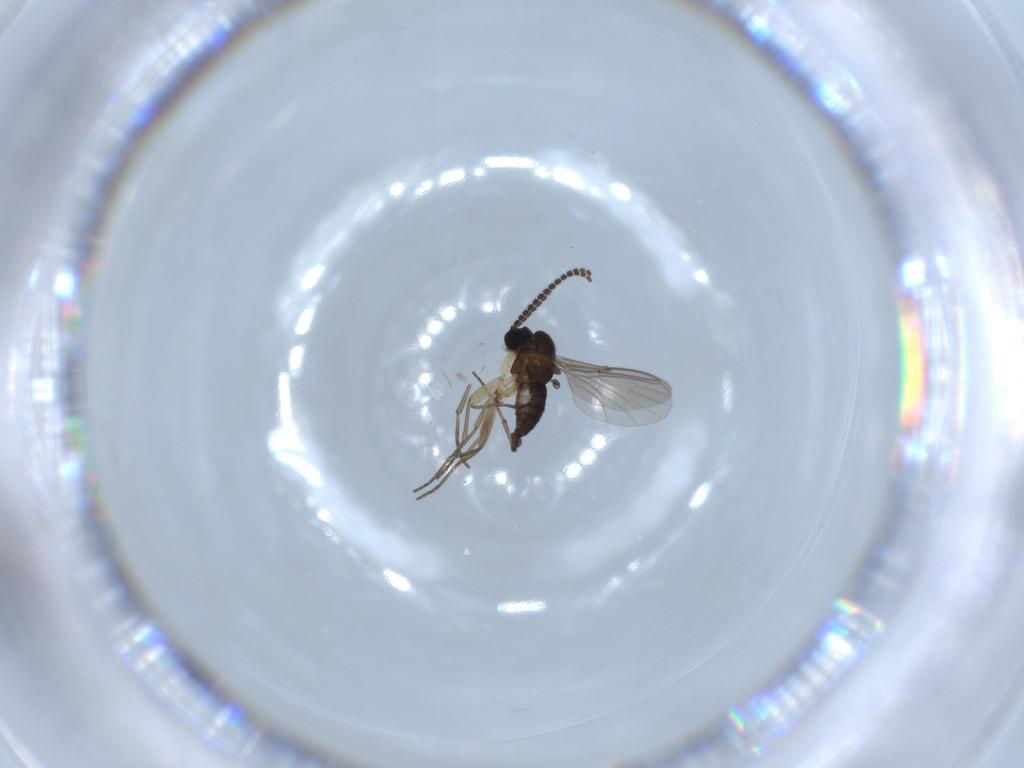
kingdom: Animalia
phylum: Arthropoda
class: Insecta
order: Diptera
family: Sciaridae
